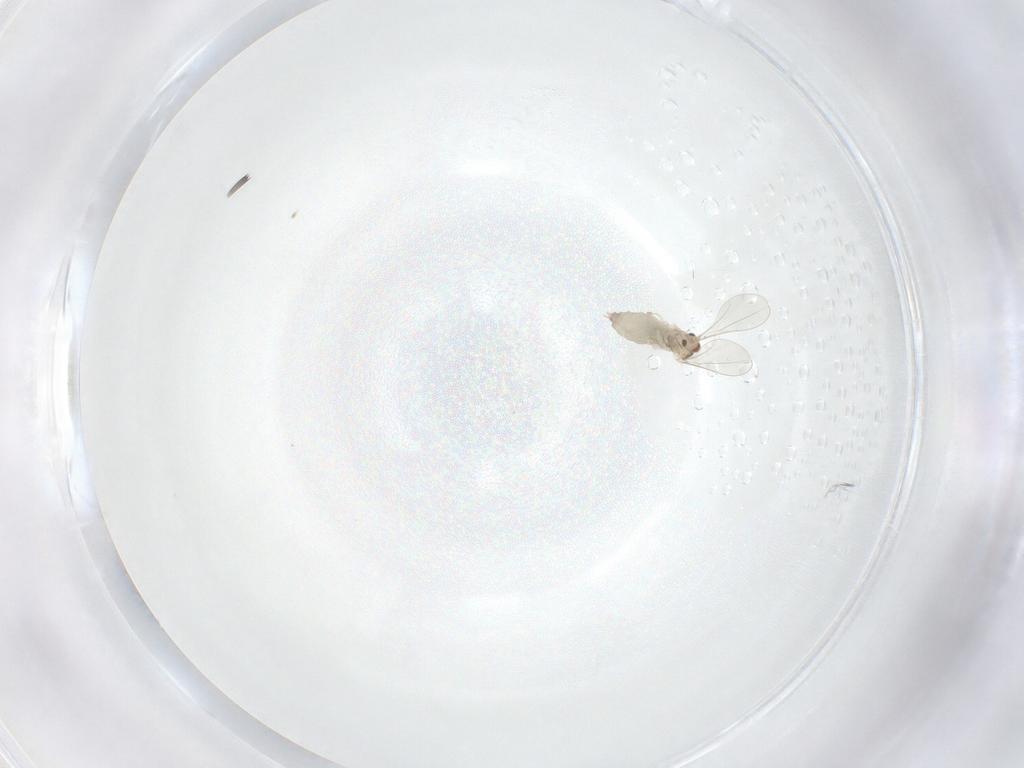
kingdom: Animalia
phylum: Arthropoda
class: Insecta
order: Diptera
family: Cecidomyiidae
